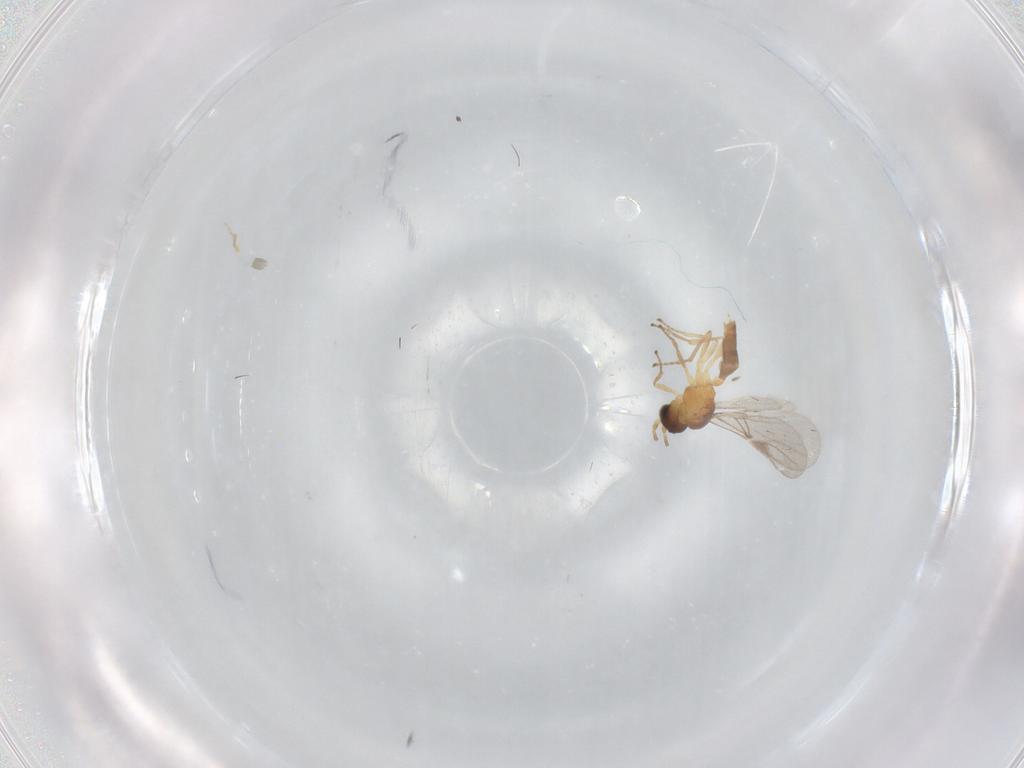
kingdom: Animalia
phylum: Arthropoda
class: Insecta
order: Hymenoptera
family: Braconidae
